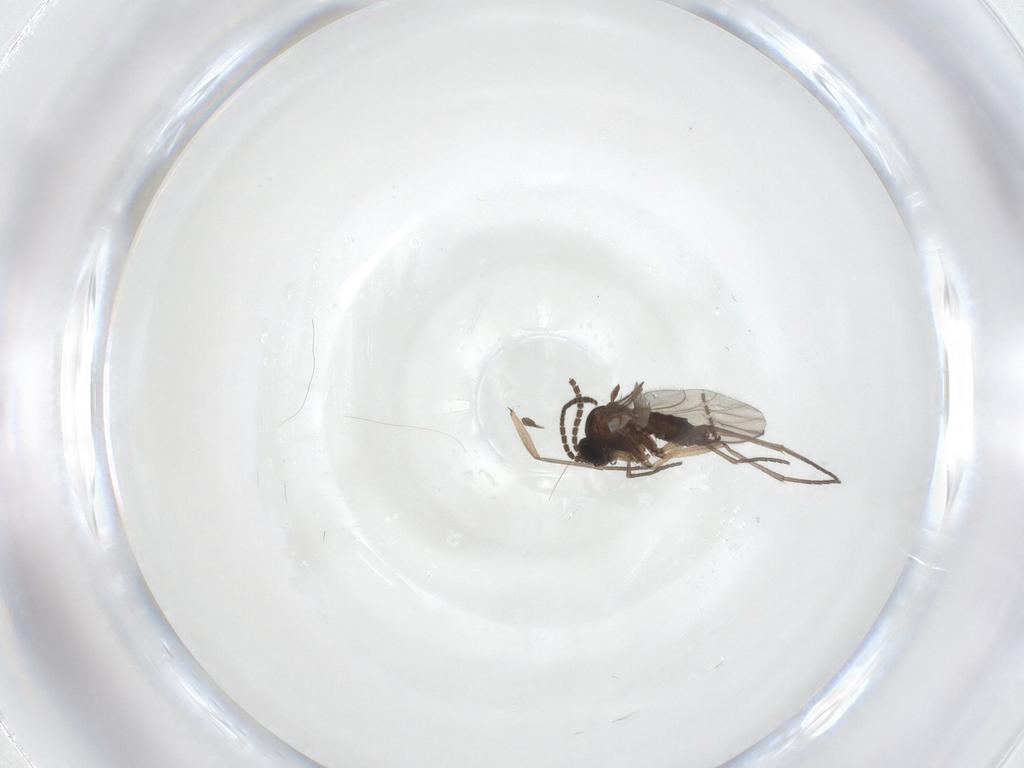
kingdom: Animalia
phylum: Arthropoda
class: Insecta
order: Diptera
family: Sciaridae
